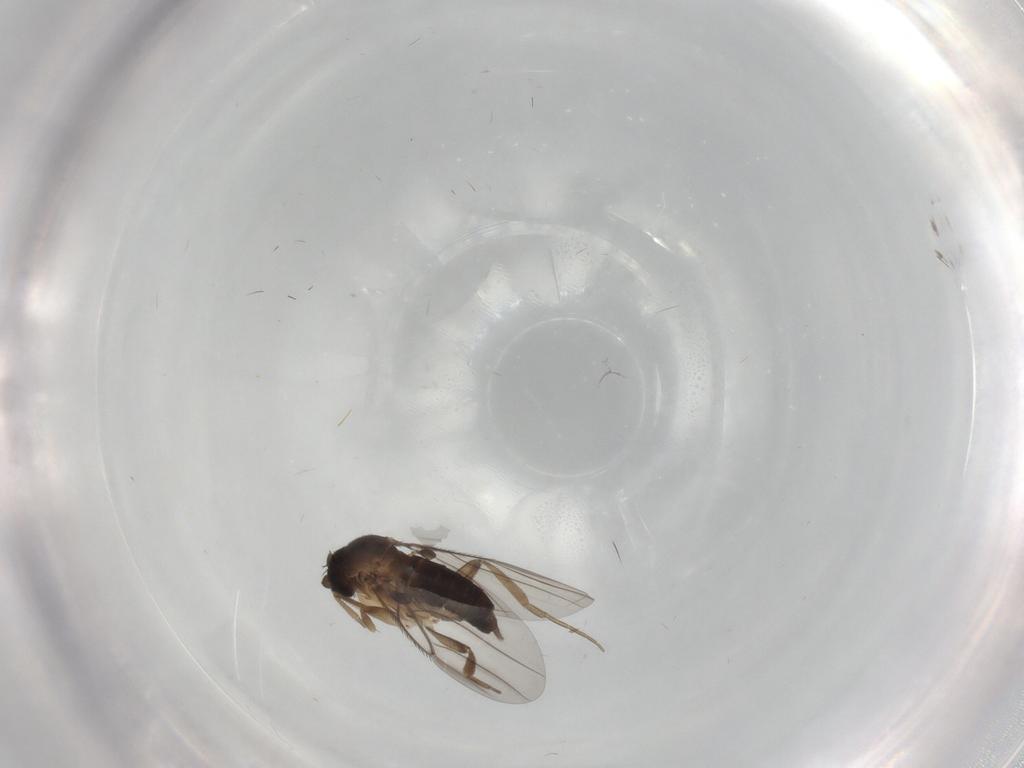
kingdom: Animalia
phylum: Arthropoda
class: Insecta
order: Diptera
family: Phoridae
